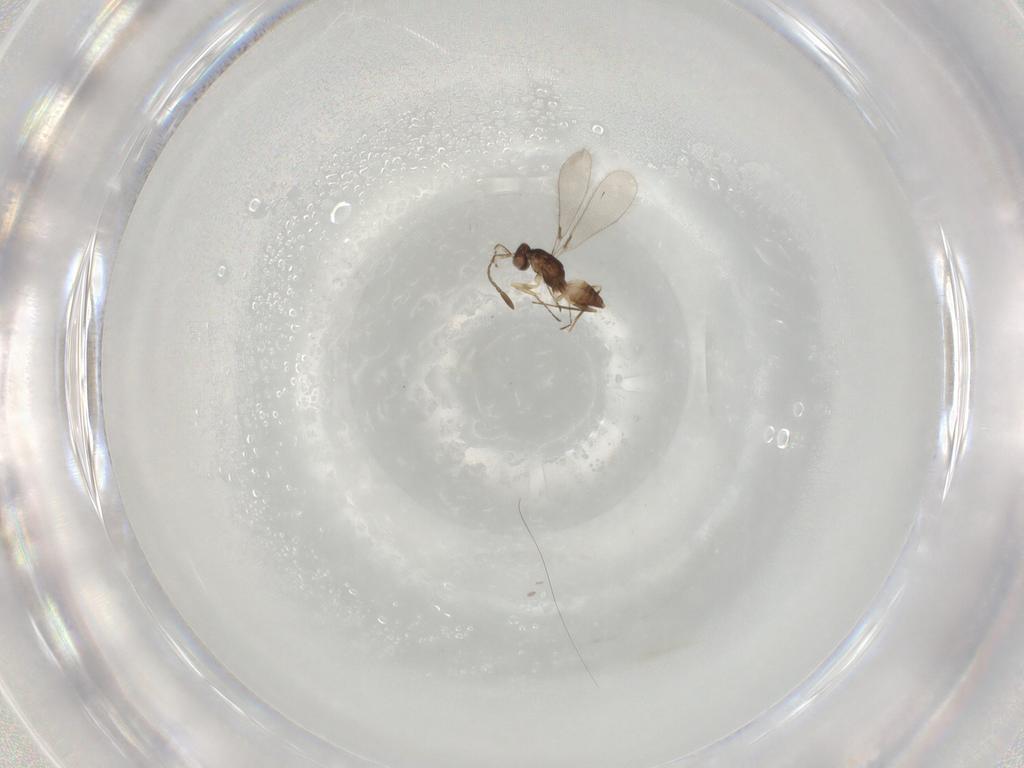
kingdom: Animalia
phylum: Arthropoda
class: Insecta
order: Hymenoptera
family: Mymaridae
